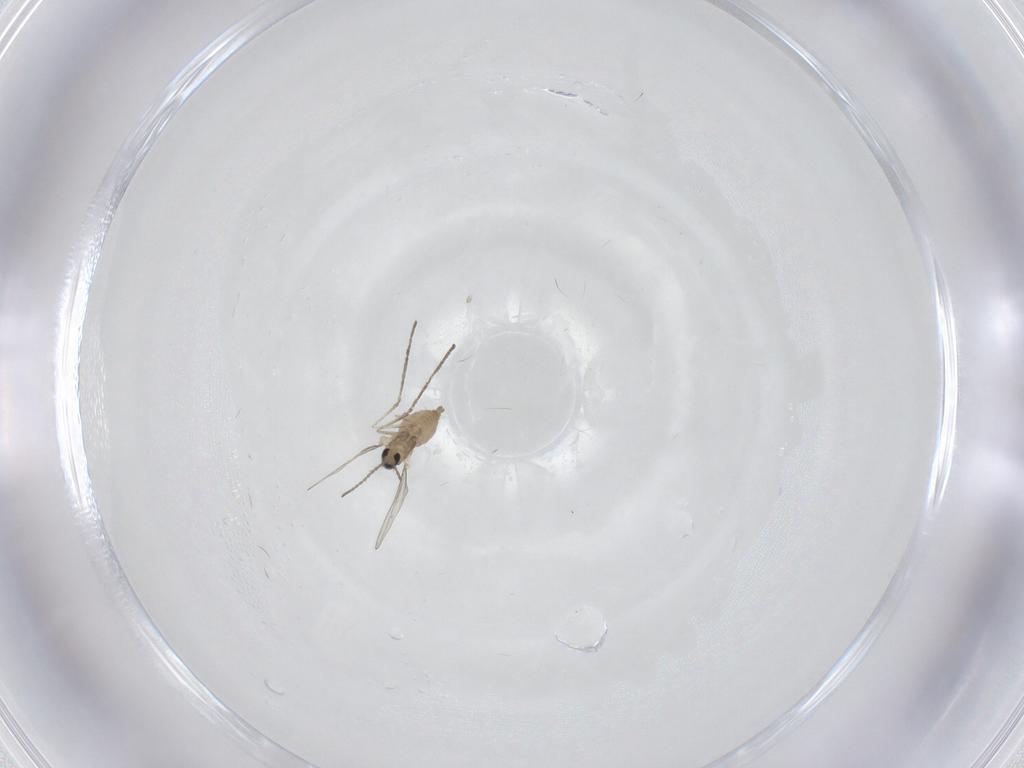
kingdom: Animalia
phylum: Arthropoda
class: Insecta
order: Diptera
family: Cecidomyiidae
